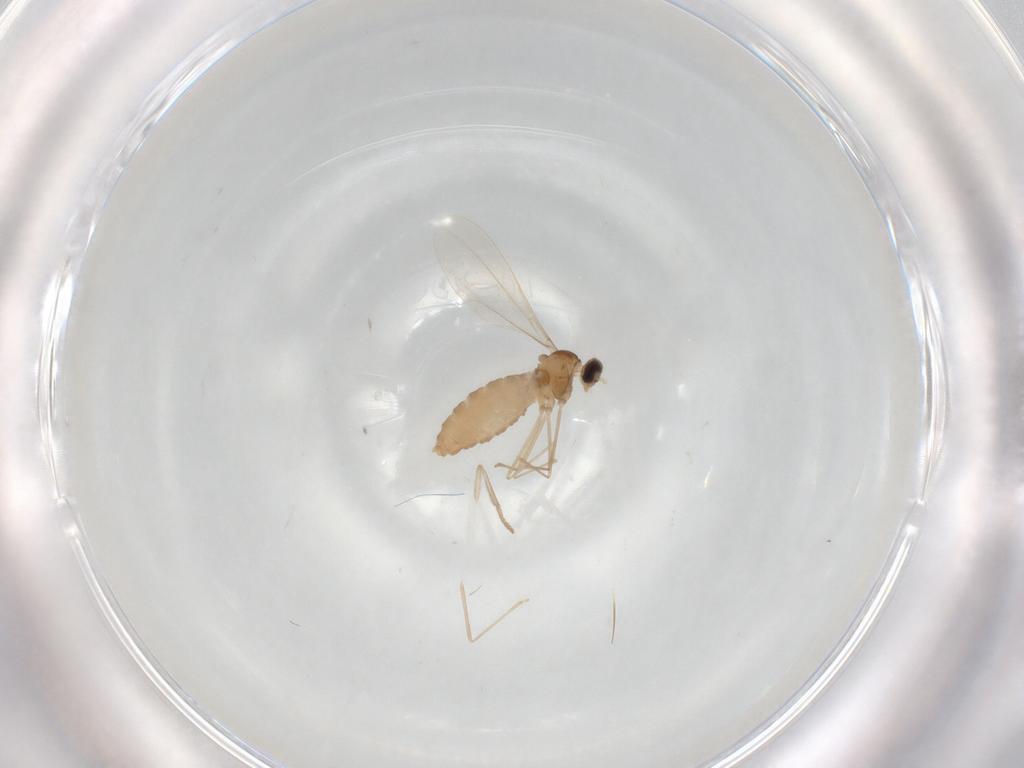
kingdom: Animalia
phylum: Arthropoda
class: Insecta
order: Diptera
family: Cecidomyiidae
